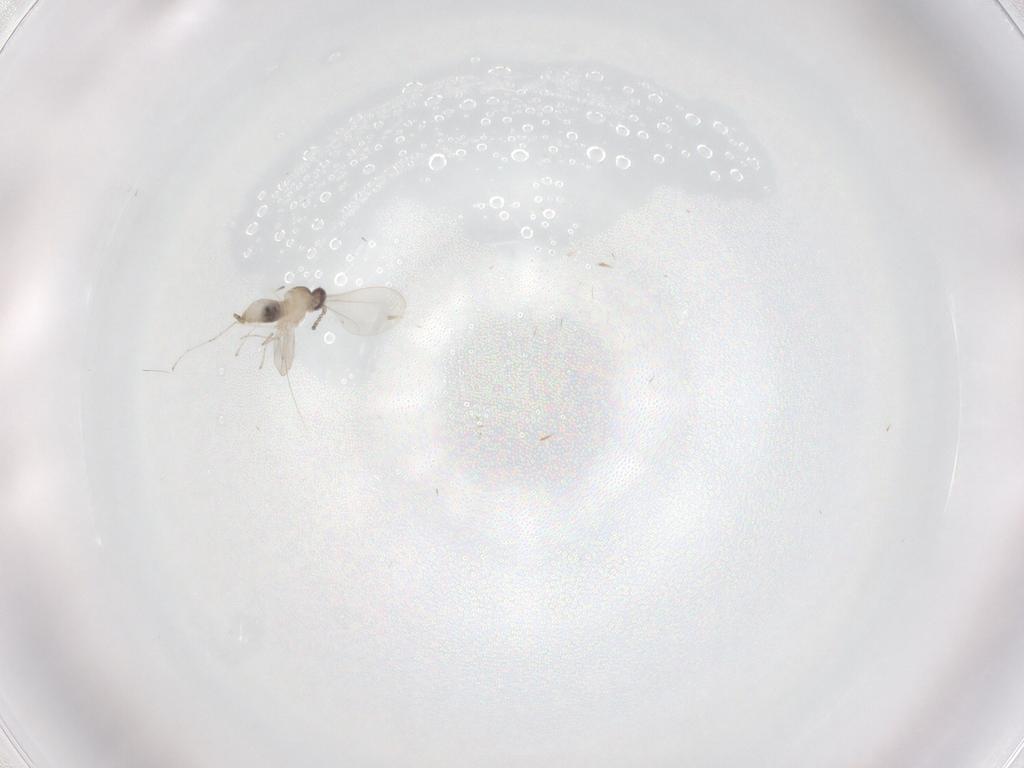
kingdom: Animalia
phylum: Arthropoda
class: Insecta
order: Diptera
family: Cecidomyiidae
